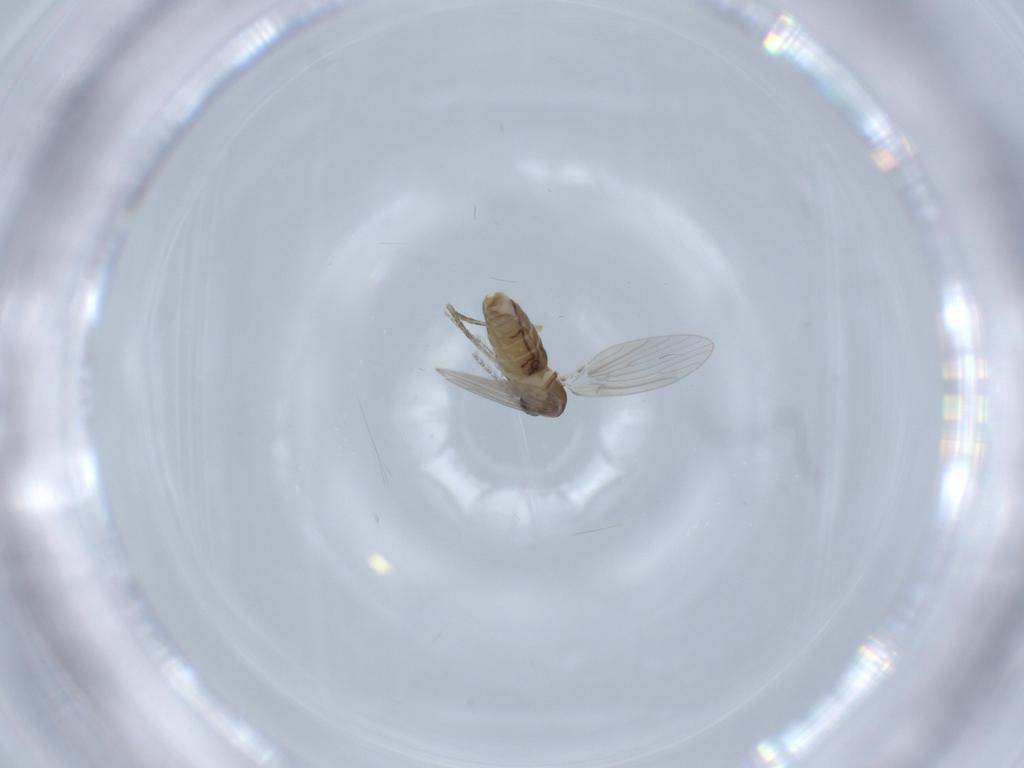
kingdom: Animalia
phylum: Arthropoda
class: Insecta
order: Diptera
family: Psychodidae
